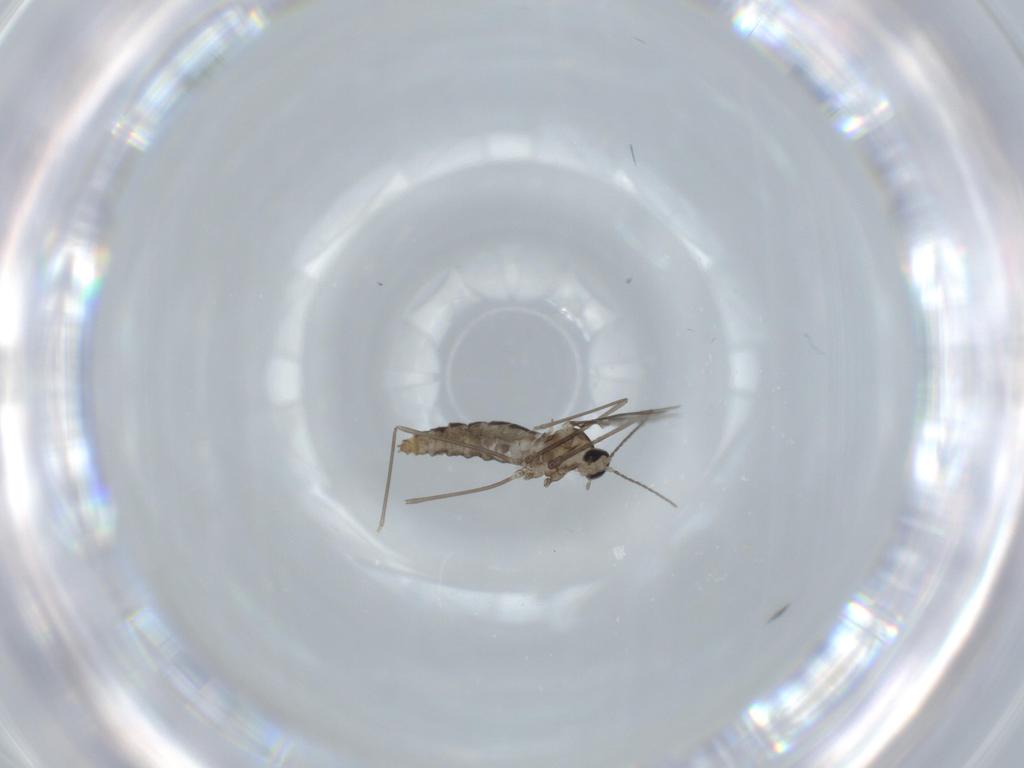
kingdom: Animalia
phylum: Arthropoda
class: Insecta
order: Diptera
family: Cecidomyiidae
